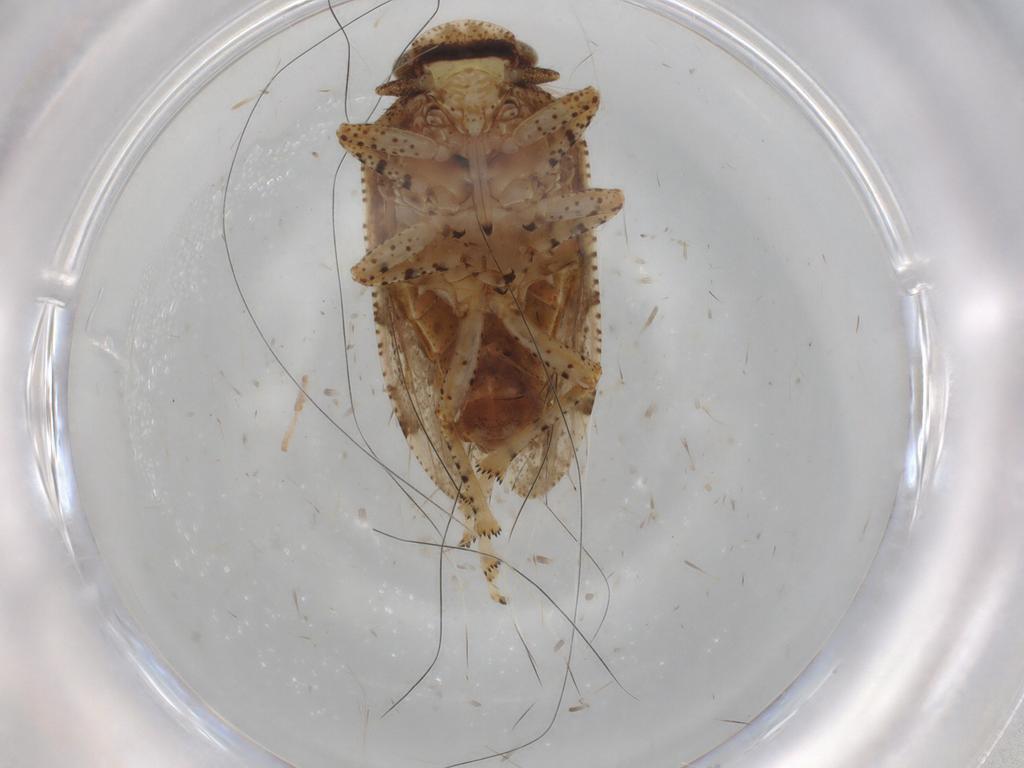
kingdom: Animalia
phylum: Arthropoda
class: Insecta
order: Hemiptera
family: Tettigometridae
